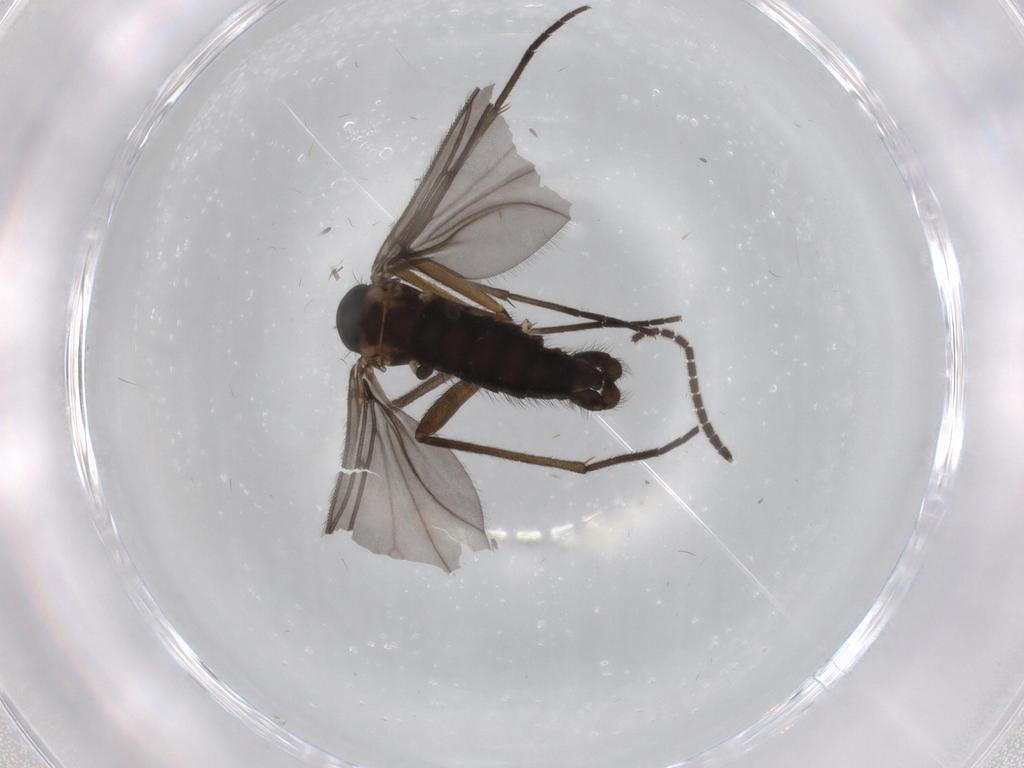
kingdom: Animalia
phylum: Arthropoda
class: Insecta
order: Diptera
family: Sciaridae
